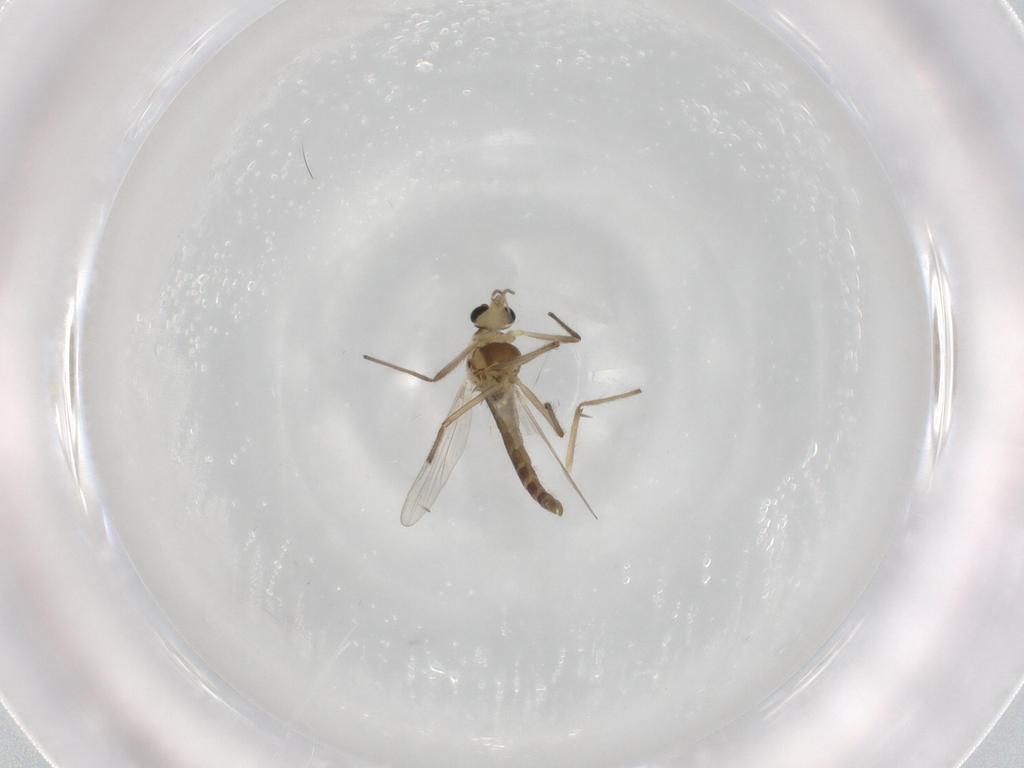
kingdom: Animalia
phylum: Arthropoda
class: Insecta
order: Diptera
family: Chironomidae
